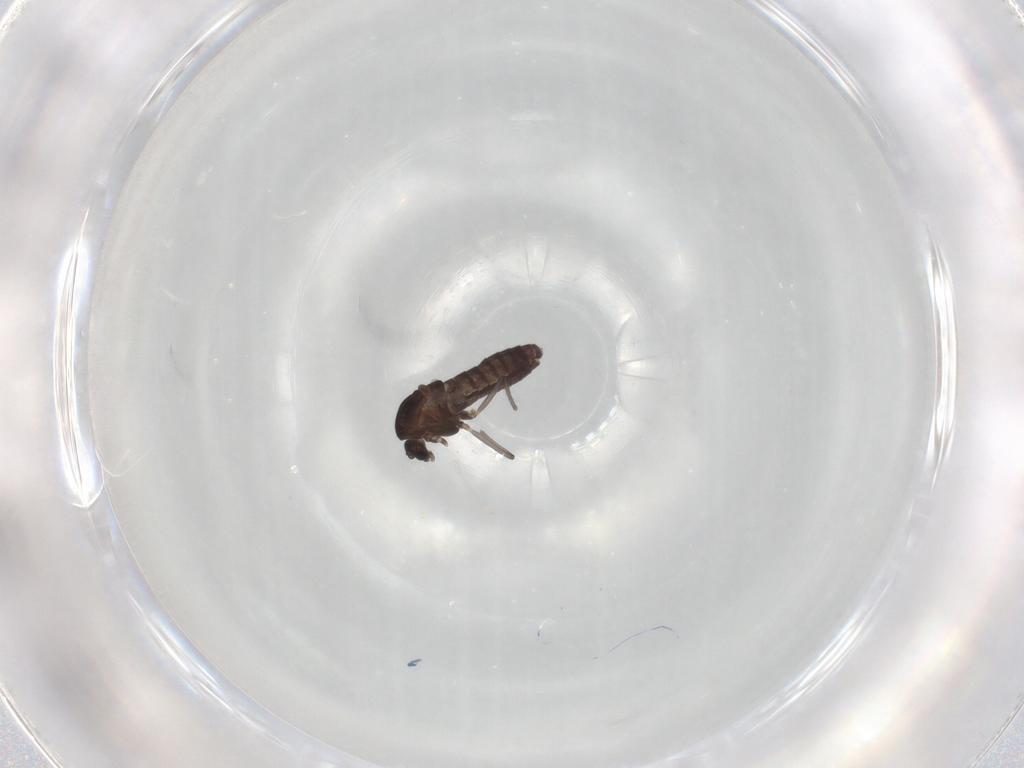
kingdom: Animalia
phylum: Arthropoda
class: Insecta
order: Diptera
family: Chironomidae
